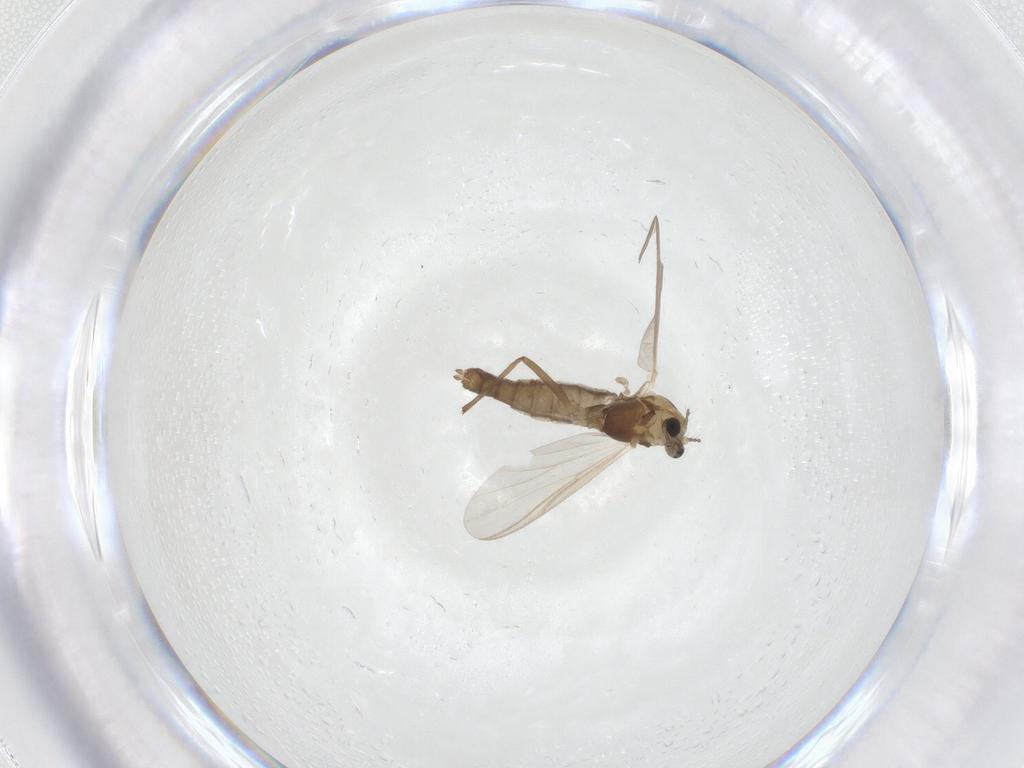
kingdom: Animalia
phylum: Arthropoda
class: Insecta
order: Diptera
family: Chironomidae
